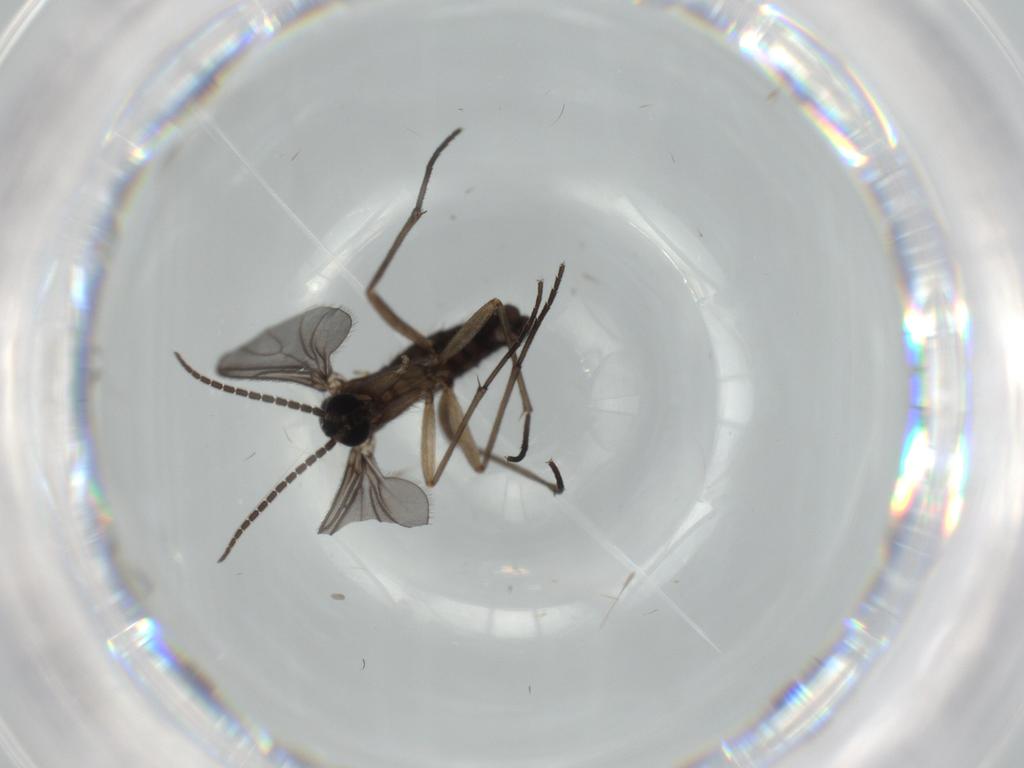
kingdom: Animalia
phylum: Arthropoda
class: Insecta
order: Diptera
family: Sciaridae
